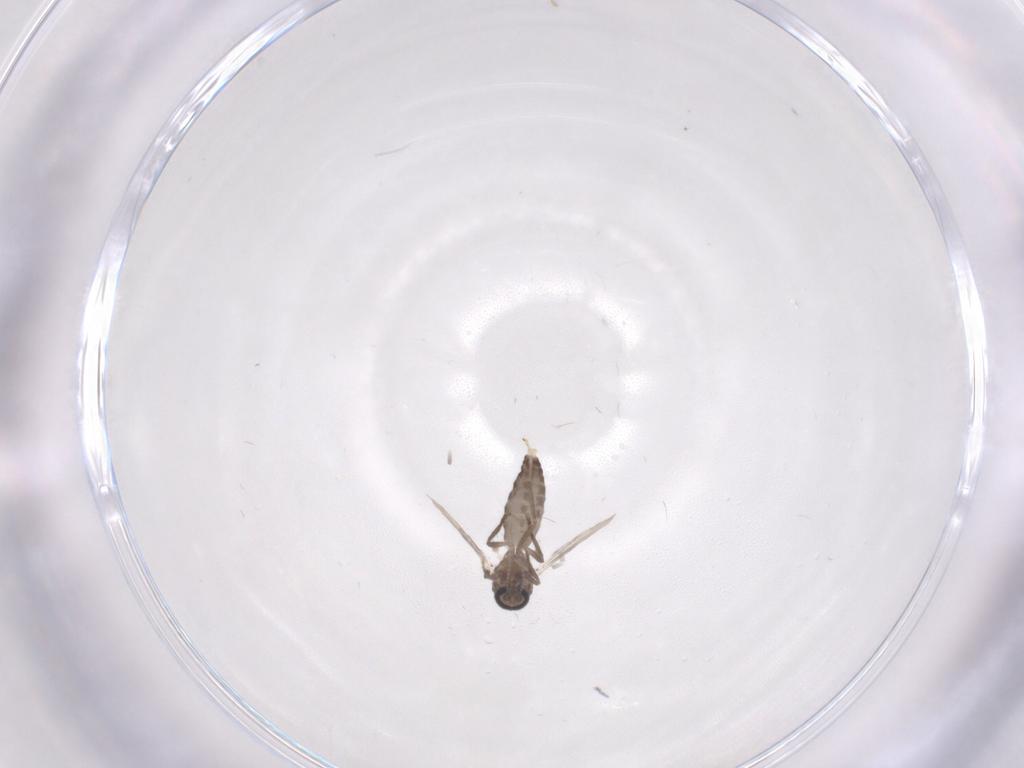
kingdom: Animalia
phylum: Arthropoda
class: Insecta
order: Diptera
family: Ceratopogonidae
